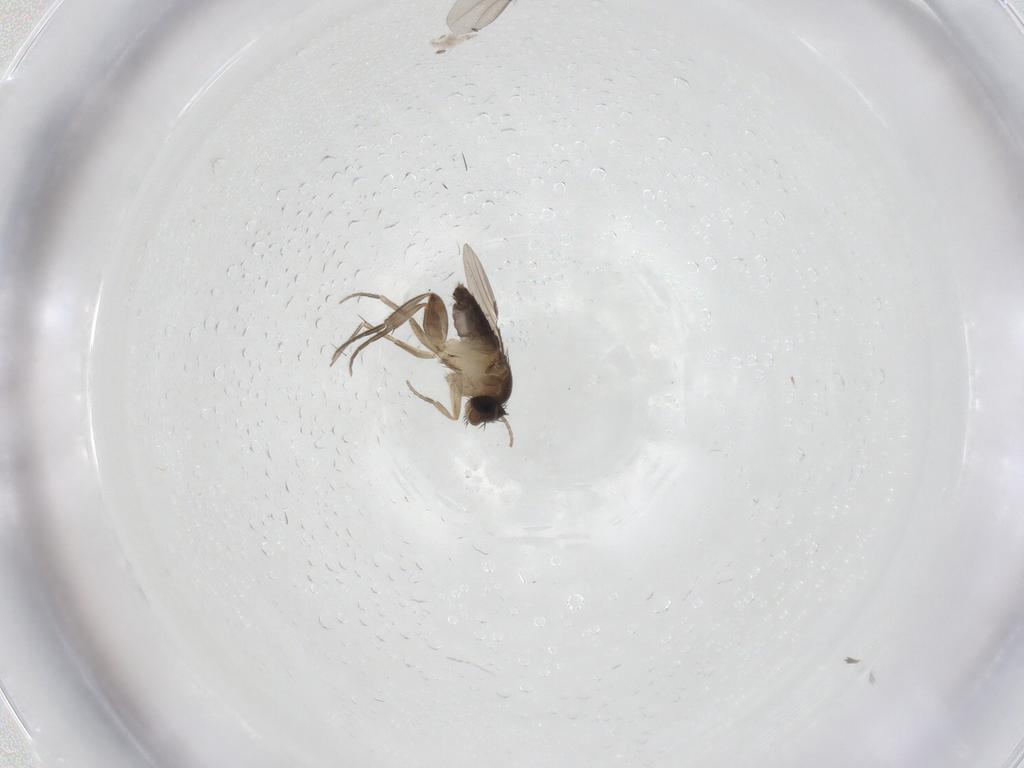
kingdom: Animalia
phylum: Arthropoda
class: Insecta
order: Diptera
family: Phoridae
